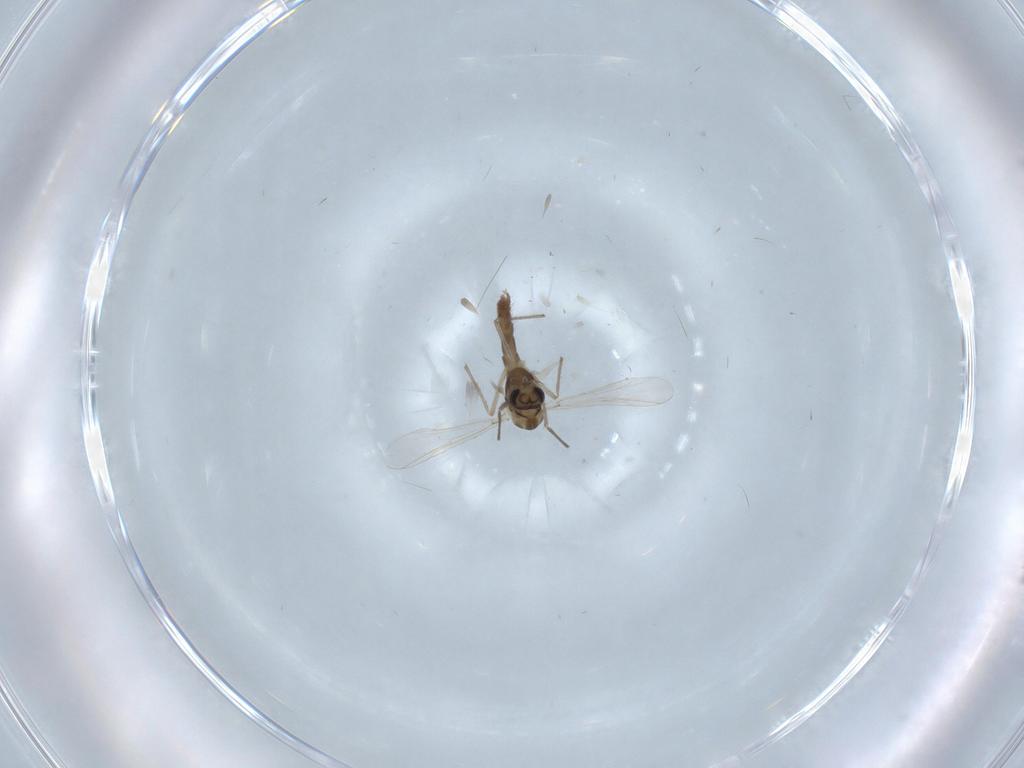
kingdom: Animalia
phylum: Arthropoda
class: Insecta
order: Diptera
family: Chironomidae
